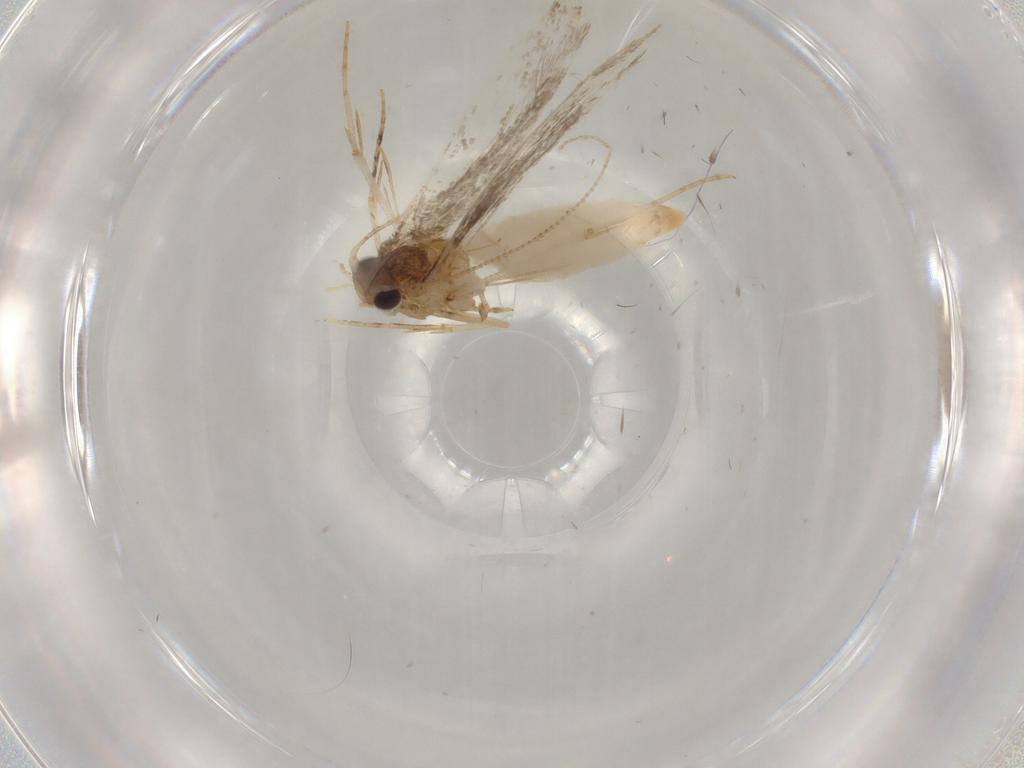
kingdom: Animalia
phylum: Arthropoda
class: Insecta
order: Lepidoptera
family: Tineidae
